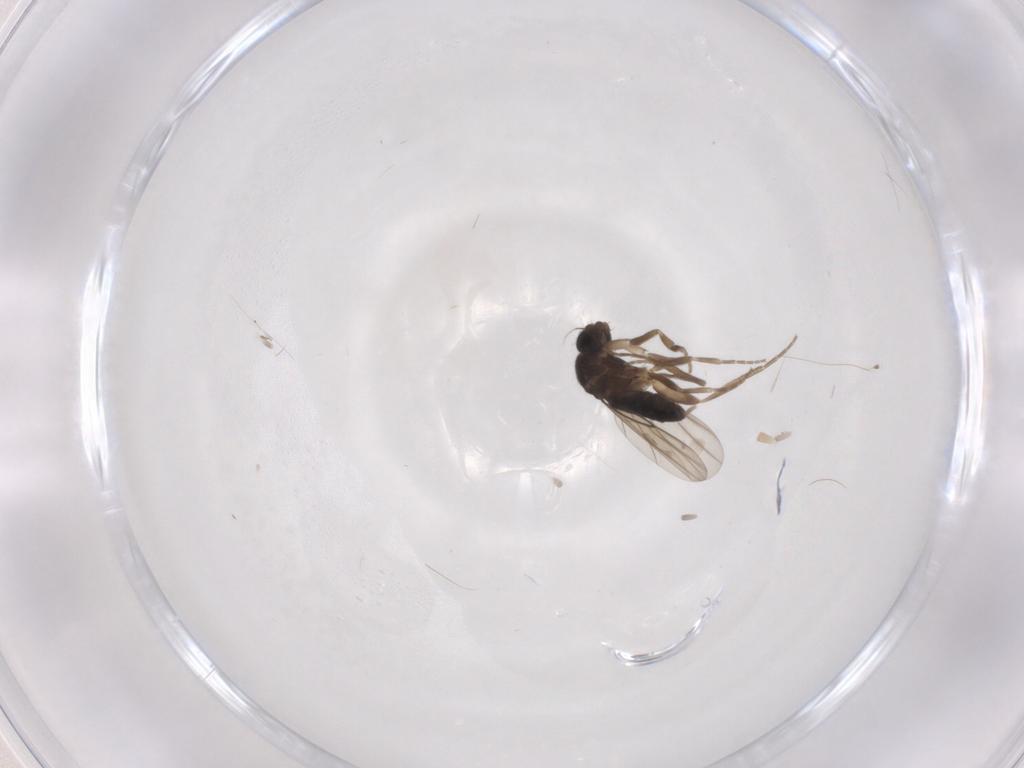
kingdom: Animalia
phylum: Arthropoda
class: Insecta
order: Diptera
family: Phoridae
